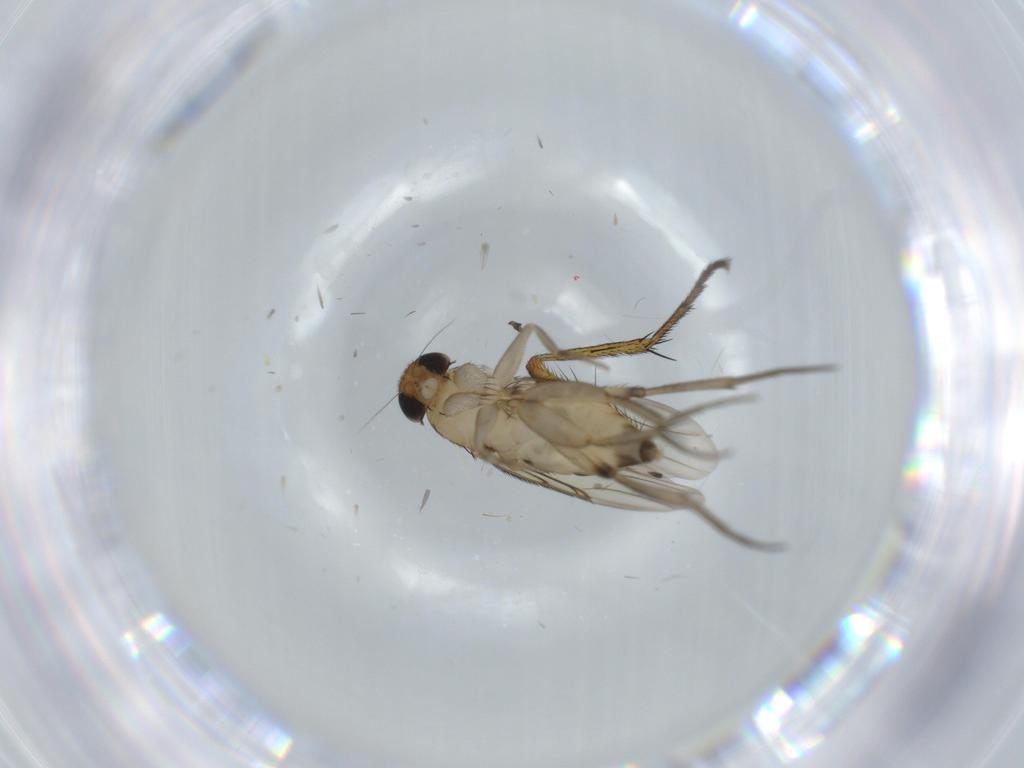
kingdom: Animalia
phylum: Arthropoda
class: Insecta
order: Diptera
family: Muscidae
